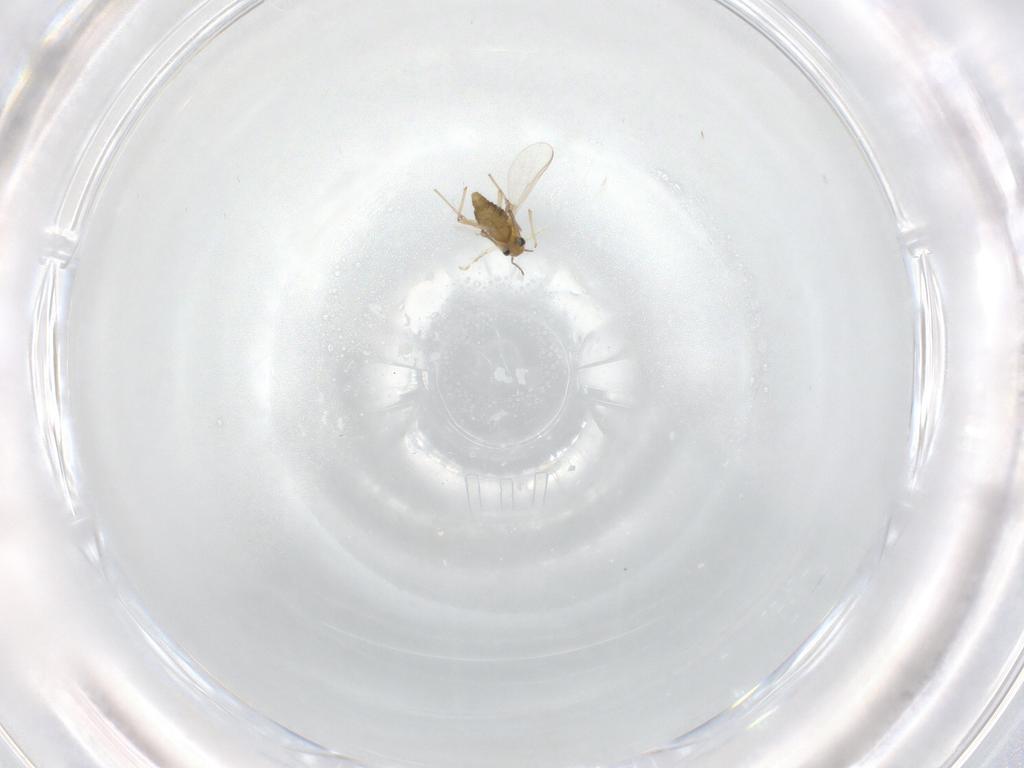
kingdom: Animalia
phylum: Arthropoda
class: Insecta
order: Diptera
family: Chironomidae
